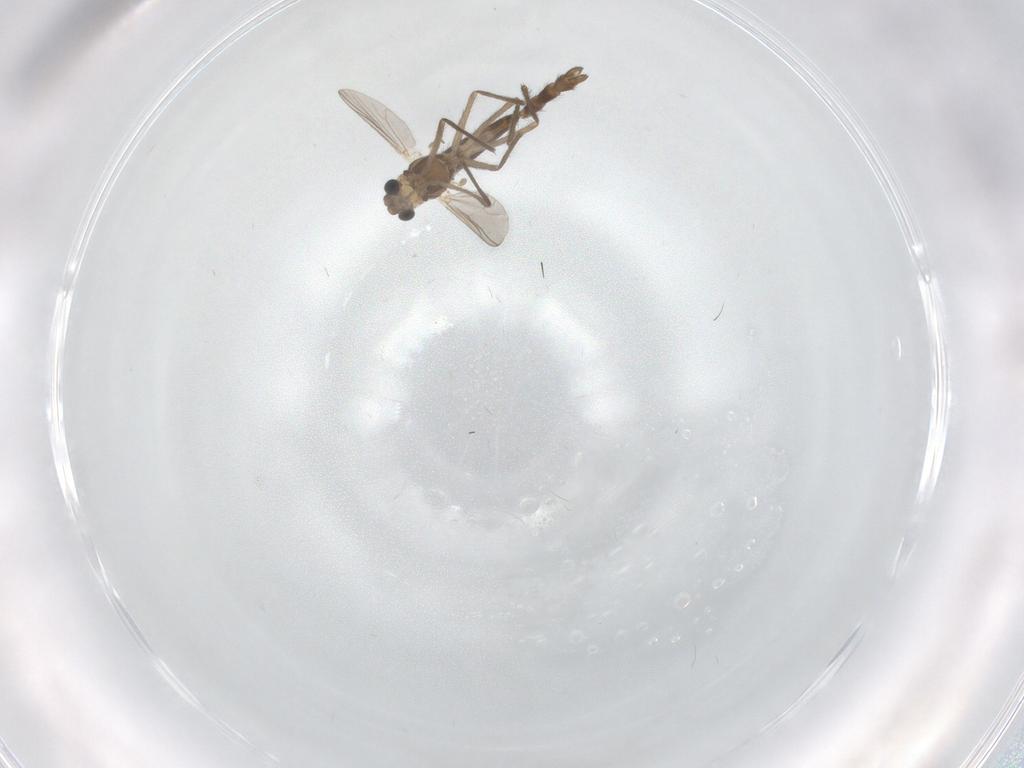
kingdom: Animalia
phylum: Arthropoda
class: Insecta
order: Diptera
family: Chironomidae
